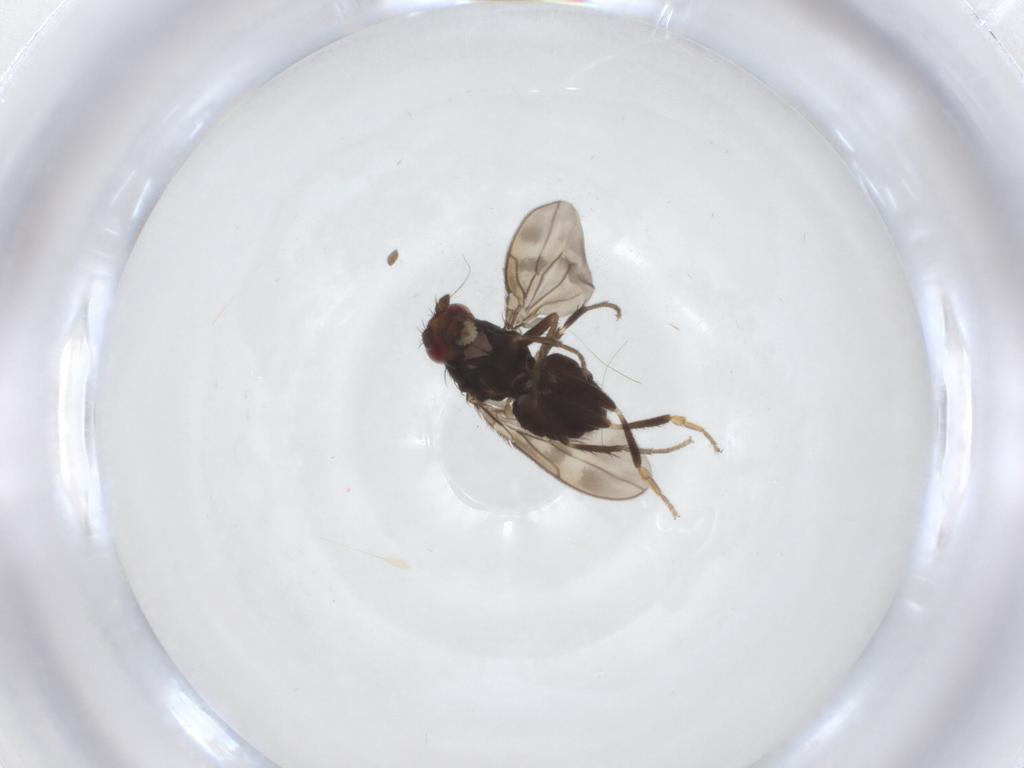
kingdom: Animalia
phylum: Arthropoda
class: Insecta
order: Diptera
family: Sphaeroceridae
